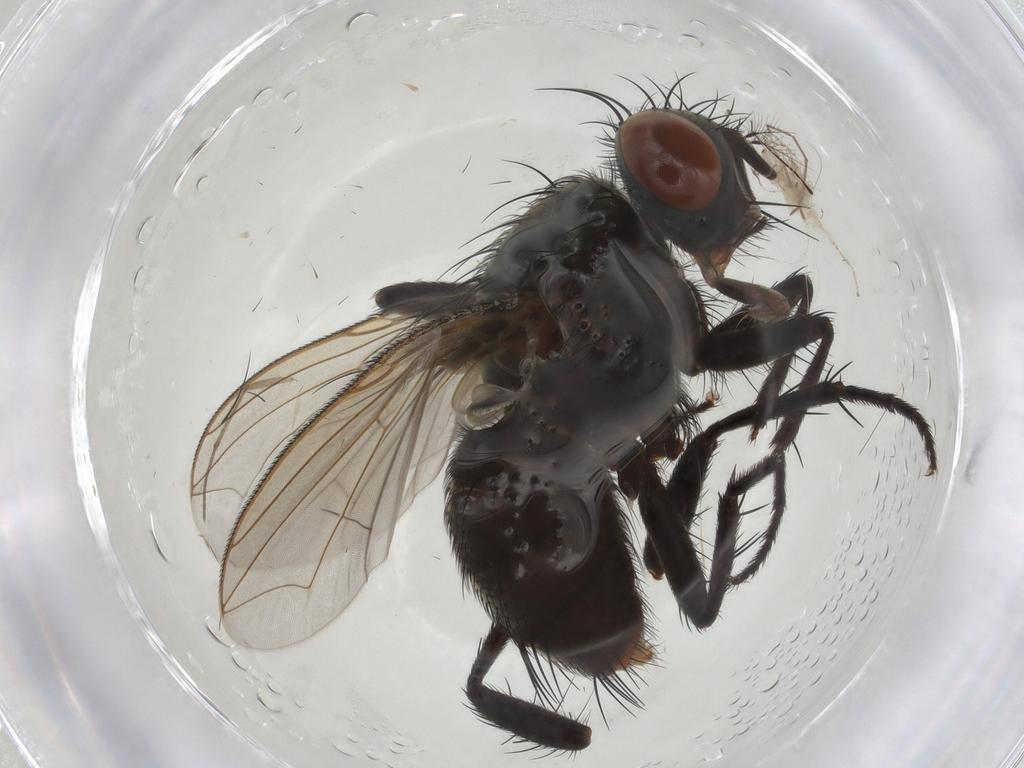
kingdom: Animalia
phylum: Arthropoda
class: Insecta
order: Diptera
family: Sarcophagidae
